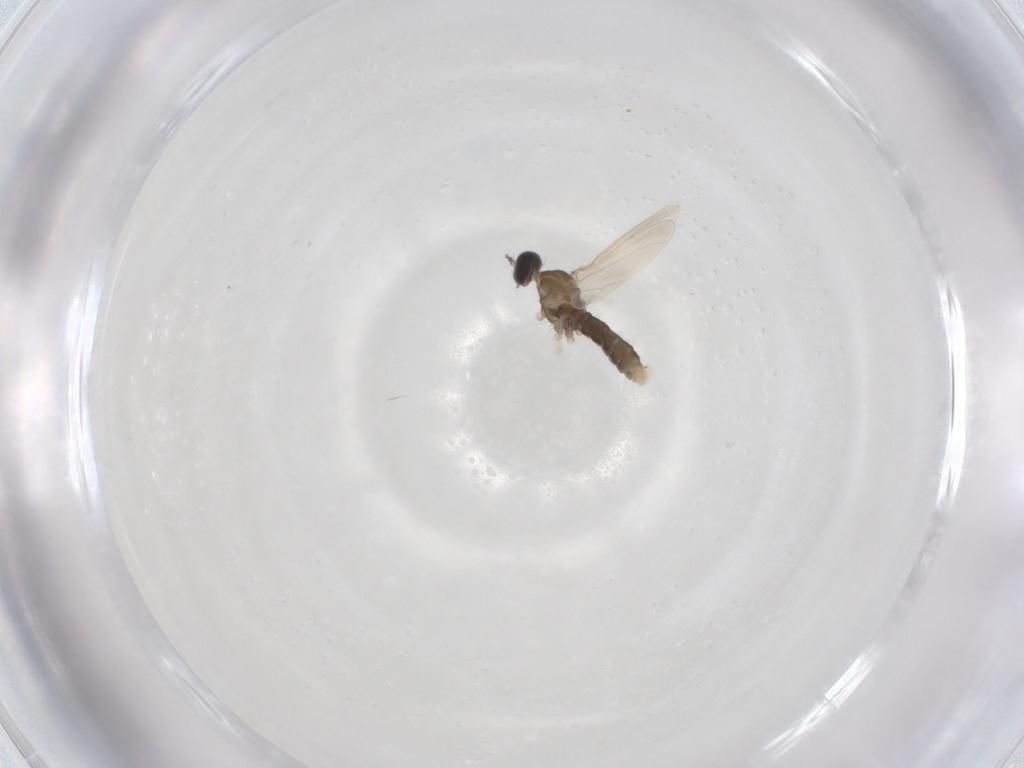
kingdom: Animalia
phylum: Arthropoda
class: Insecta
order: Diptera
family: Sciaridae
